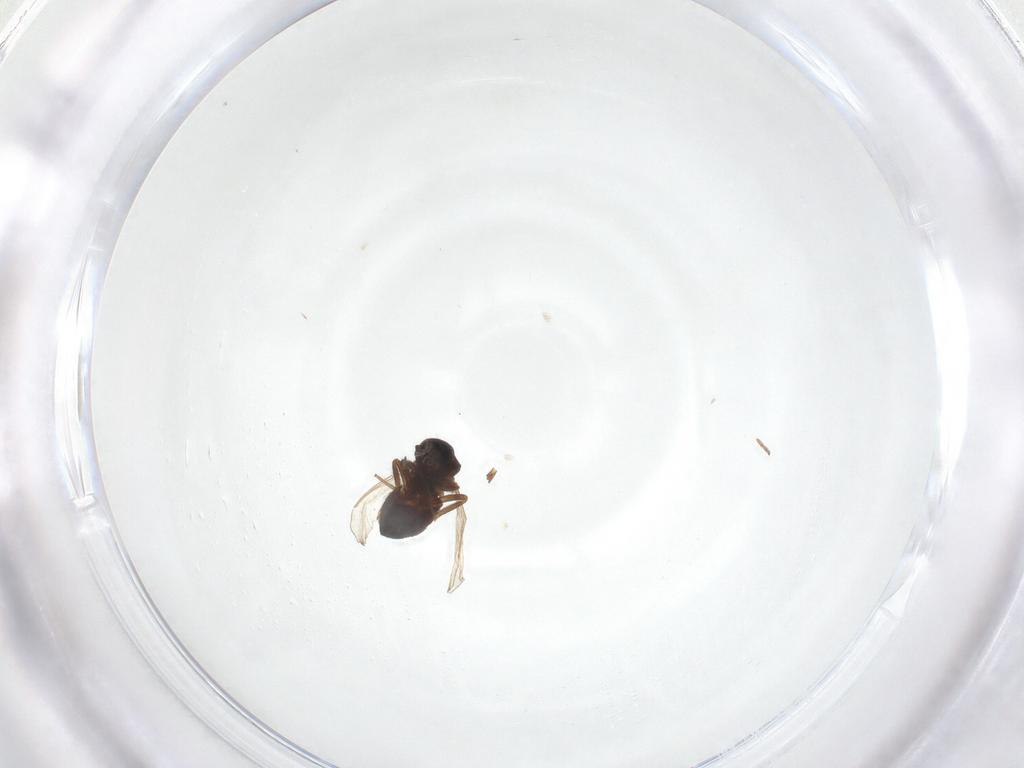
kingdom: Animalia
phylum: Arthropoda
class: Insecta
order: Diptera
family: Ceratopogonidae
